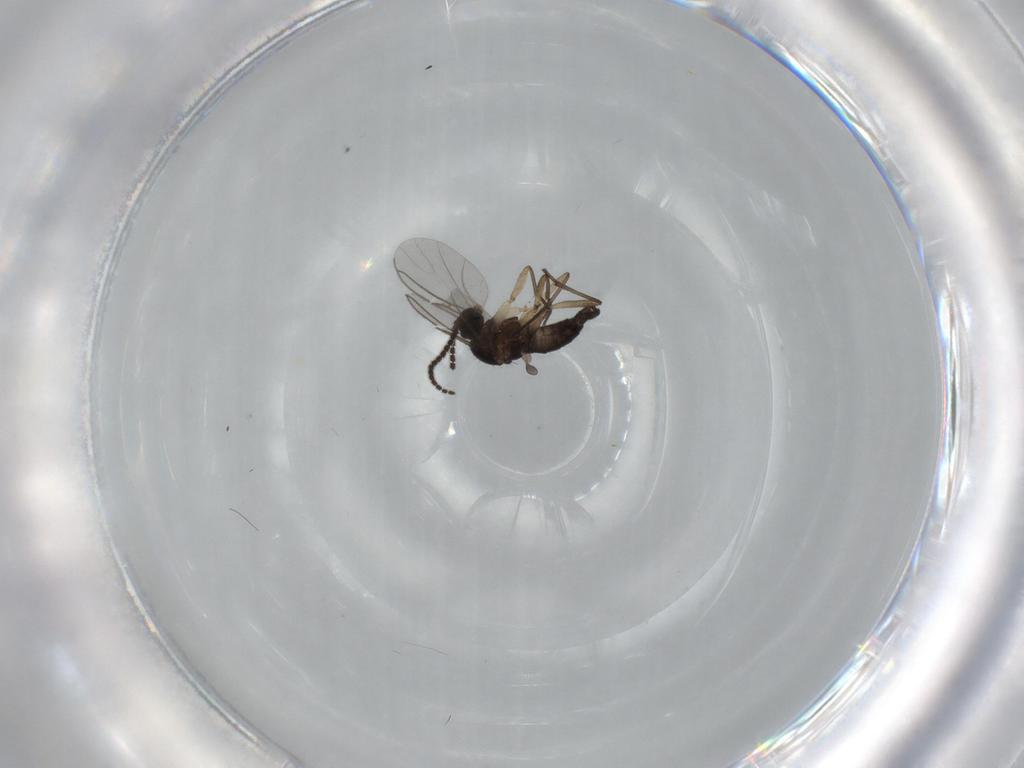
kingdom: Animalia
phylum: Arthropoda
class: Insecta
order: Diptera
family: Sciaridae
